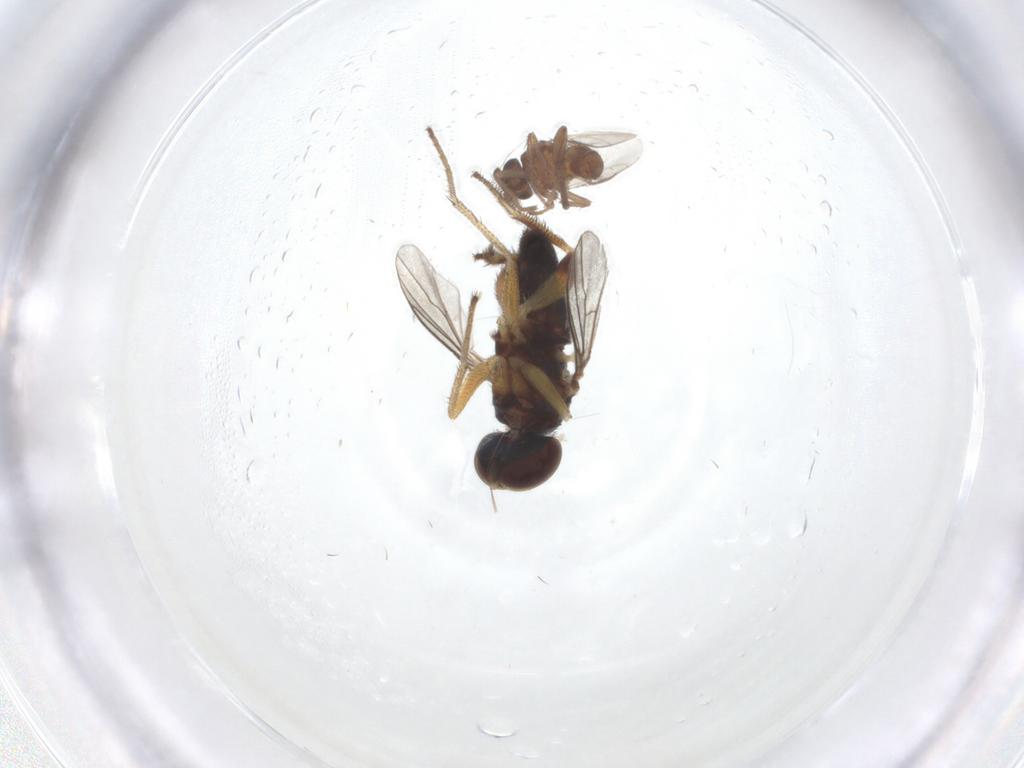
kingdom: Animalia
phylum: Arthropoda
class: Insecta
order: Diptera
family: Dolichopodidae
